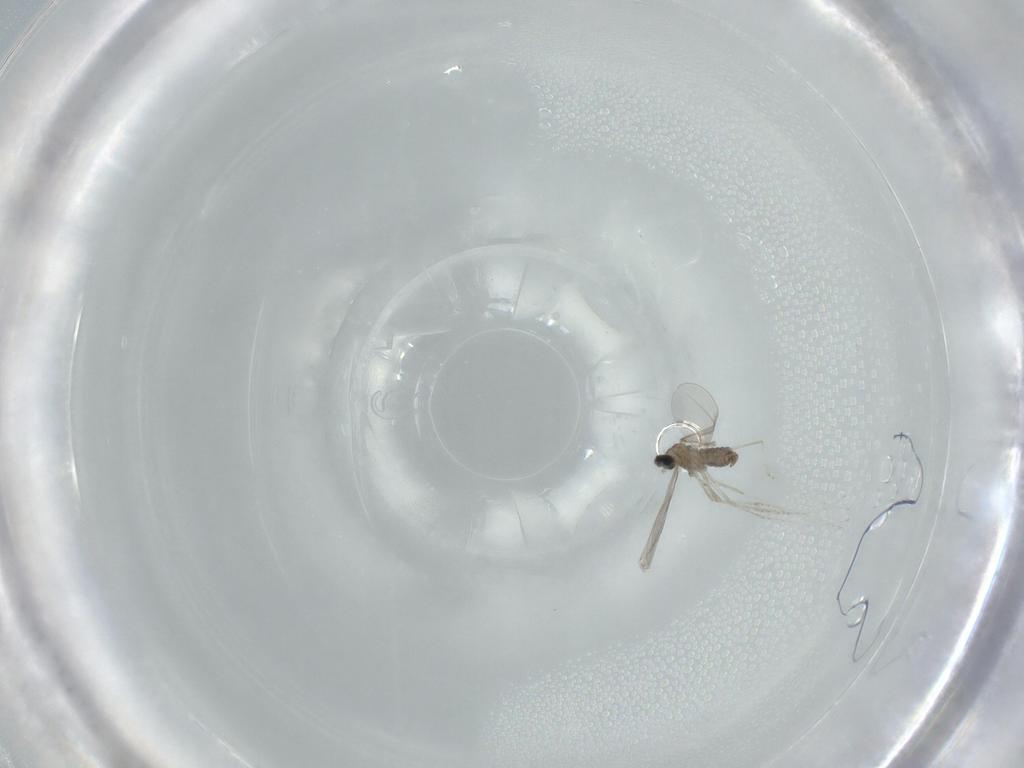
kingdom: Animalia
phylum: Arthropoda
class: Insecta
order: Diptera
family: Cecidomyiidae
